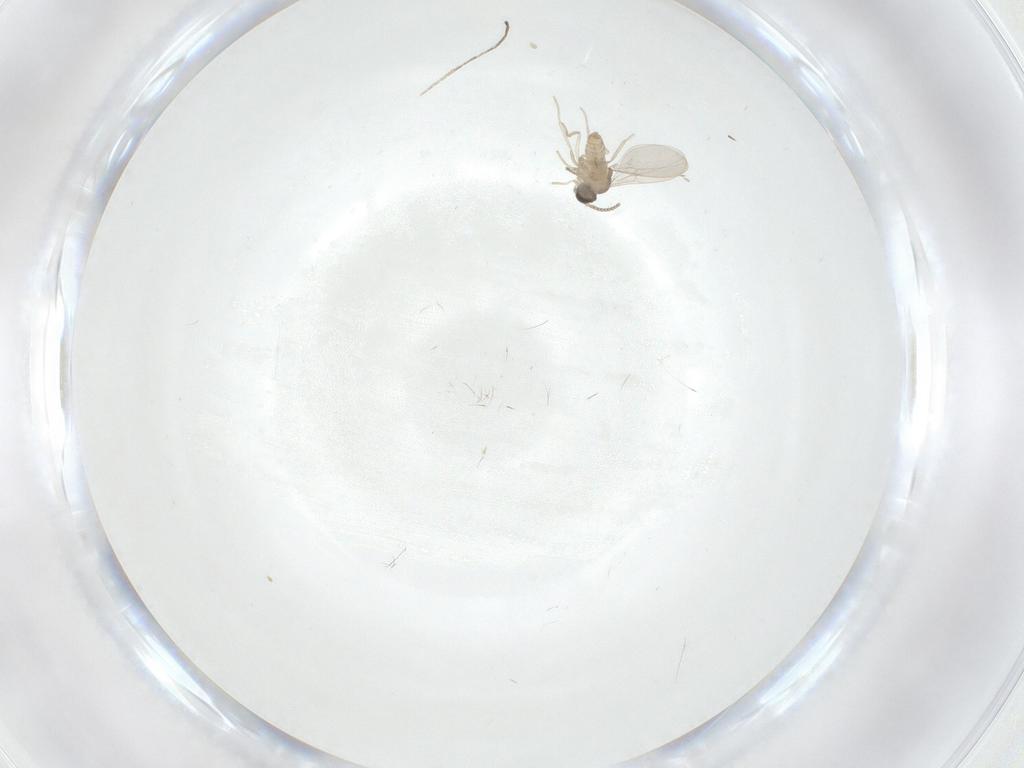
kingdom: Animalia
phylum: Arthropoda
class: Insecta
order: Diptera
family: Cecidomyiidae
